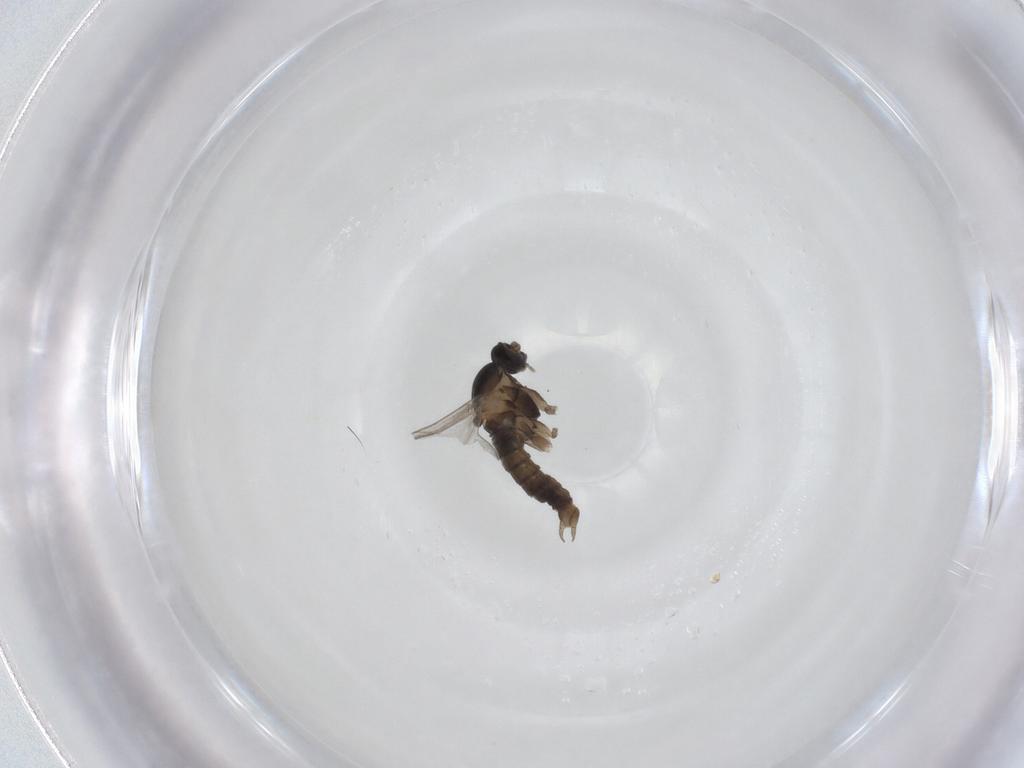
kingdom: Animalia
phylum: Arthropoda
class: Insecta
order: Diptera
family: Cecidomyiidae
